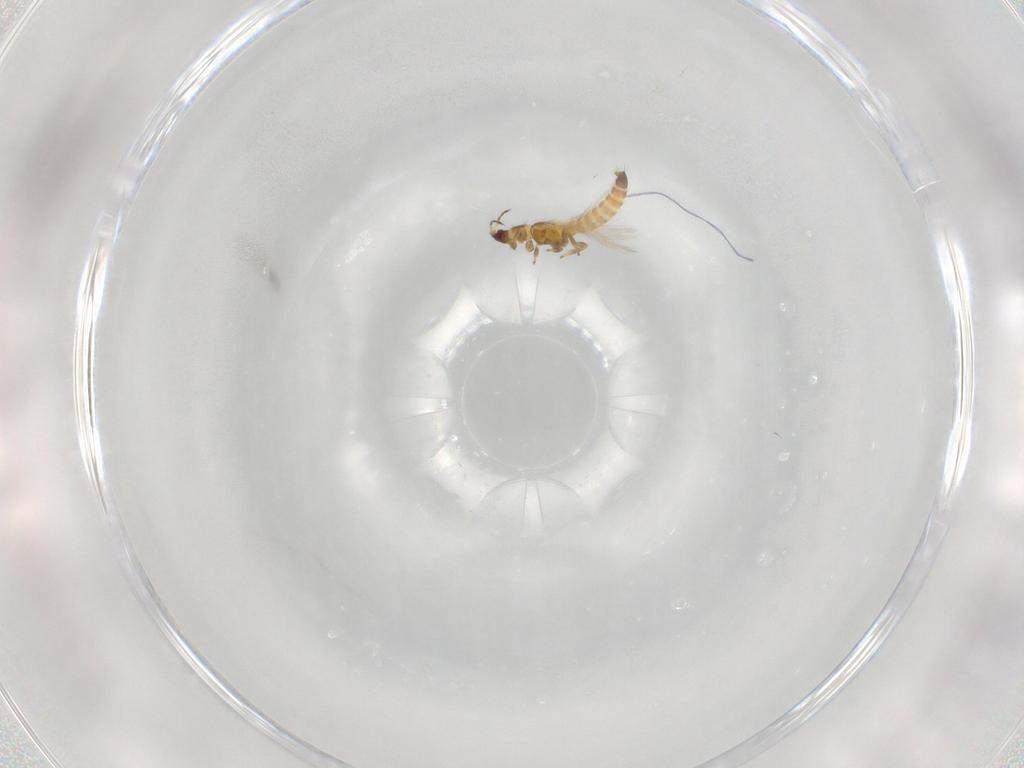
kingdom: Animalia
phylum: Arthropoda
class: Insecta
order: Thysanoptera
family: Thripidae
